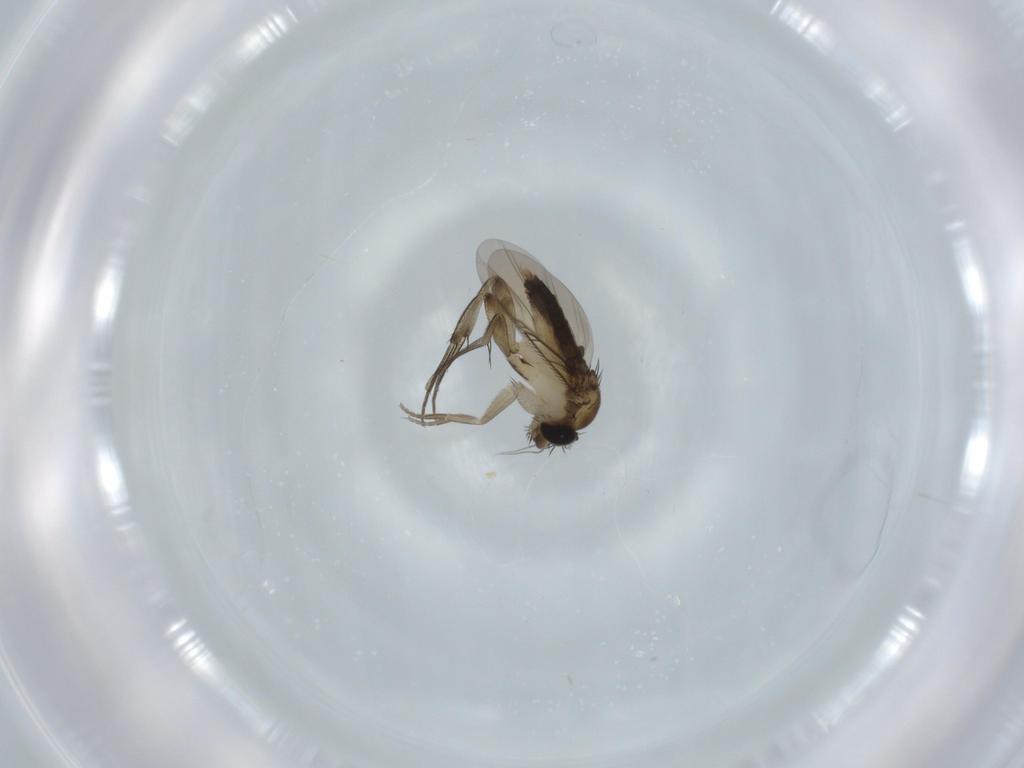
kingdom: Animalia
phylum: Arthropoda
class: Insecta
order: Diptera
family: Phoridae
